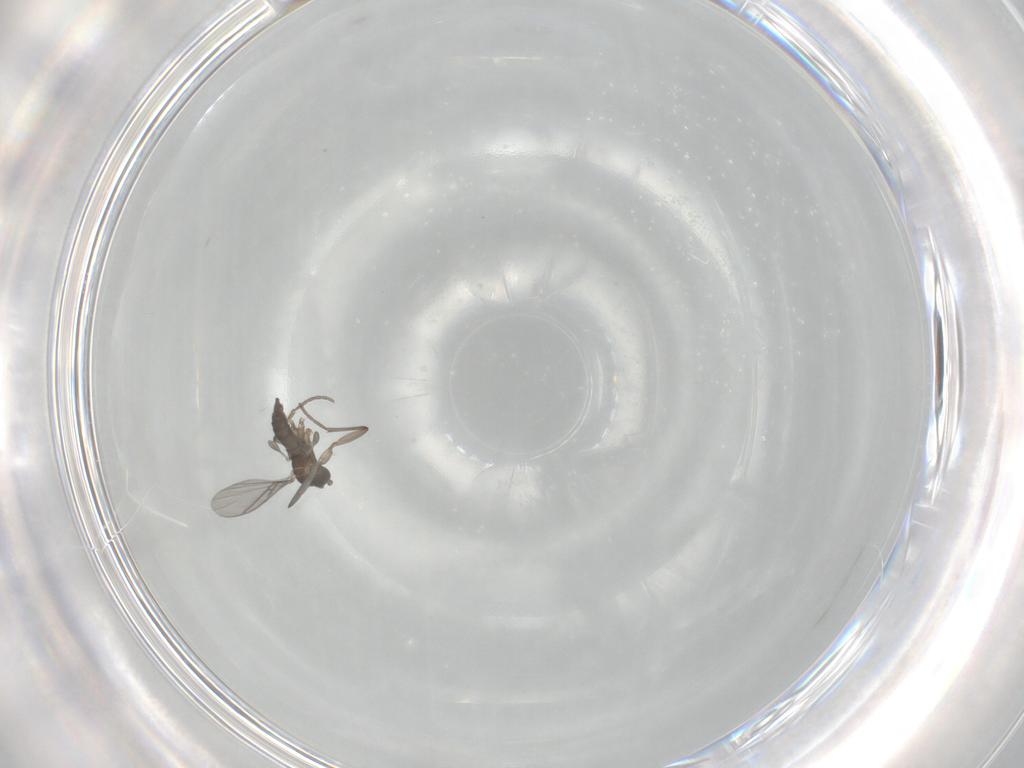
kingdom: Animalia
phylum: Arthropoda
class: Insecta
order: Diptera
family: Sciaridae
